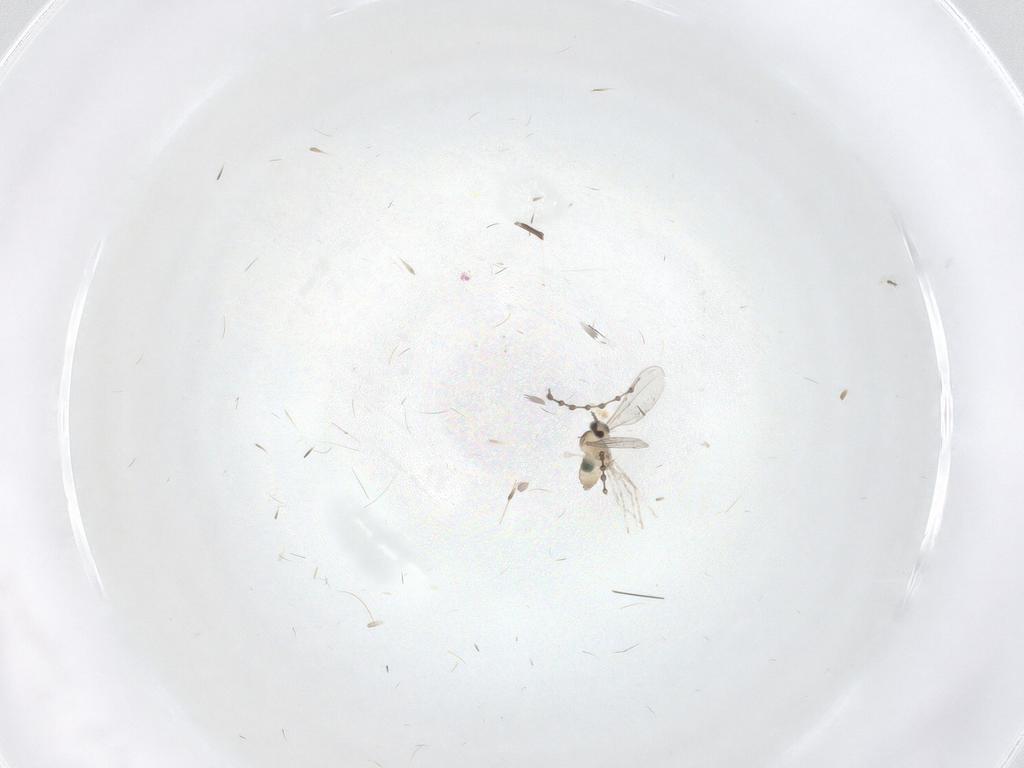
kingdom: Animalia
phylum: Arthropoda
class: Insecta
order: Diptera
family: Cecidomyiidae
